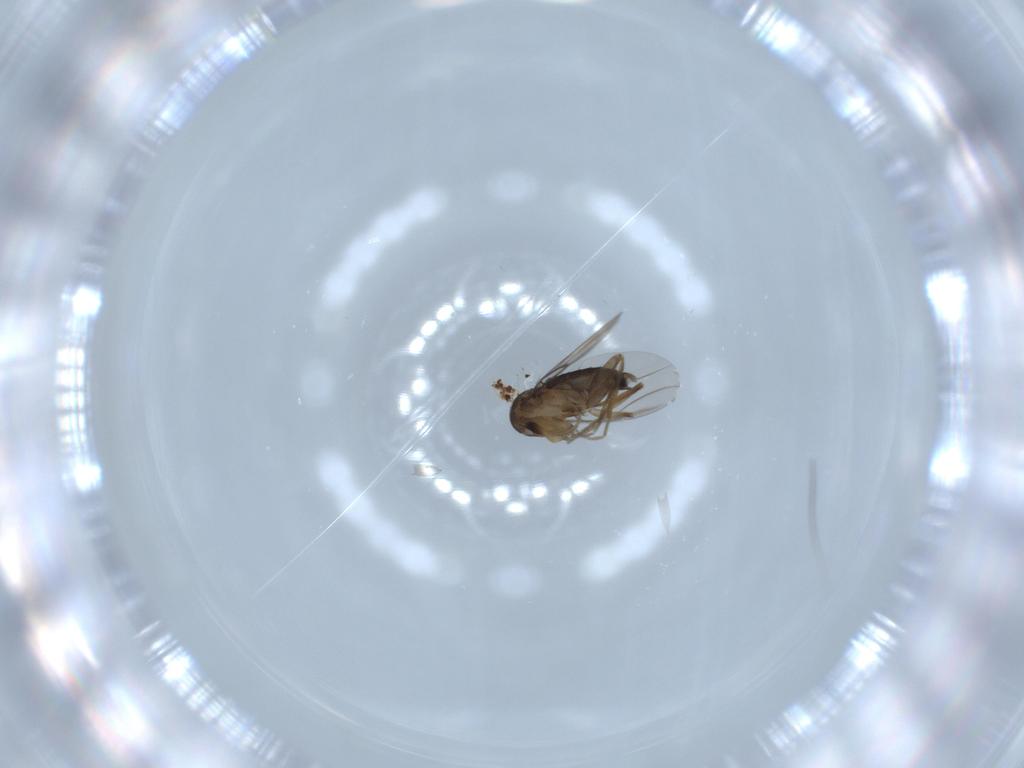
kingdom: Animalia
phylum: Arthropoda
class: Insecta
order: Diptera
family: Phoridae
